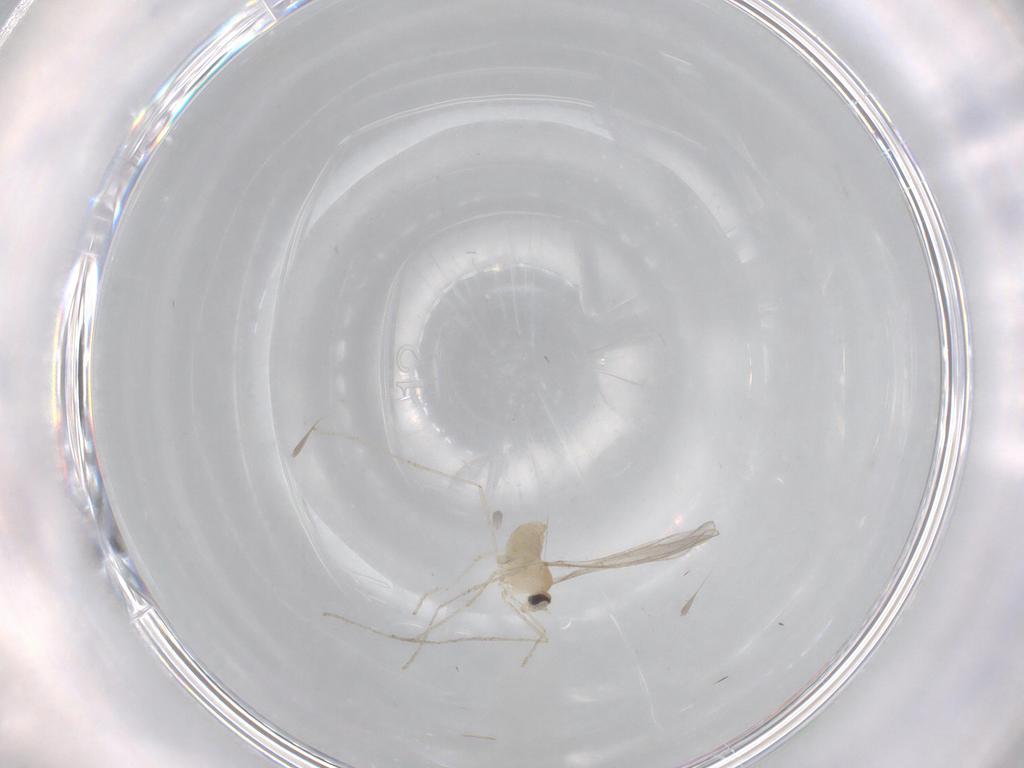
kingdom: Animalia
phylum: Arthropoda
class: Insecta
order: Diptera
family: Cecidomyiidae
